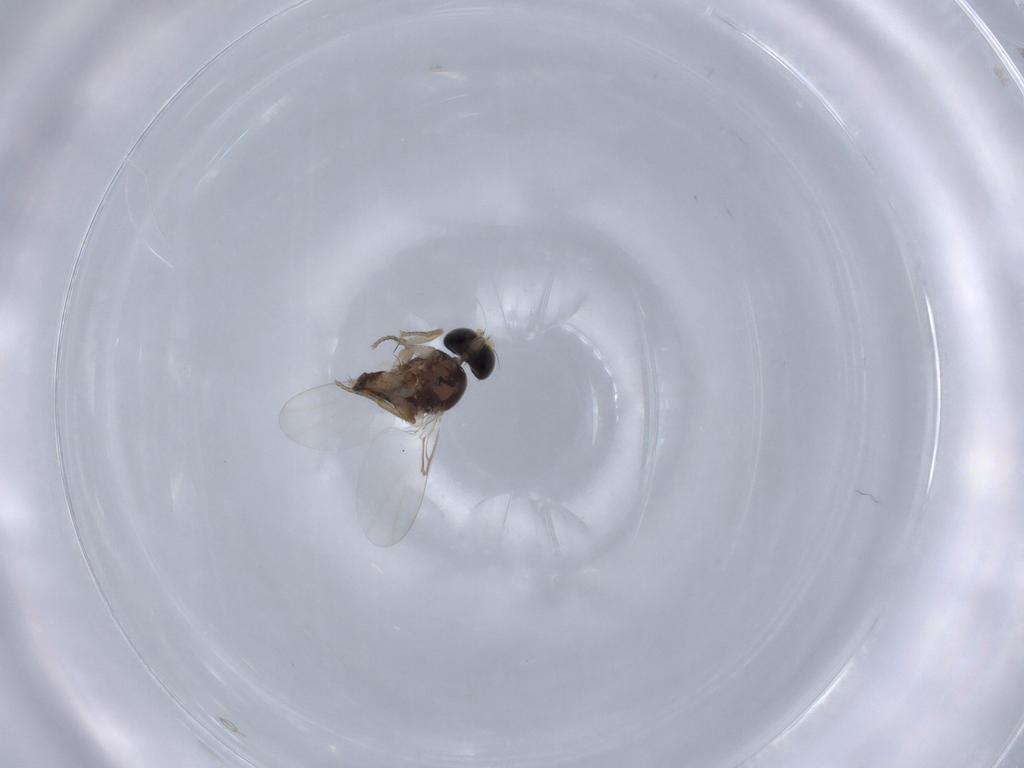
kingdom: Animalia
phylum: Arthropoda
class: Insecta
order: Diptera
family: Phoridae
